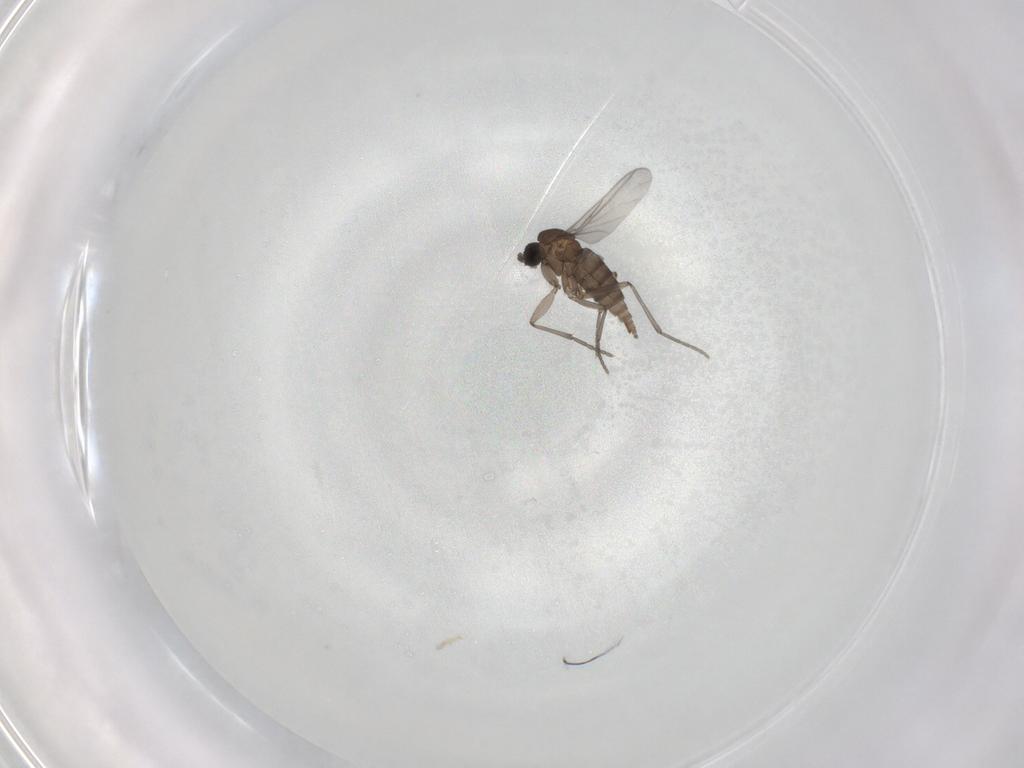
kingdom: Animalia
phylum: Arthropoda
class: Insecta
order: Diptera
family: Sciaridae
